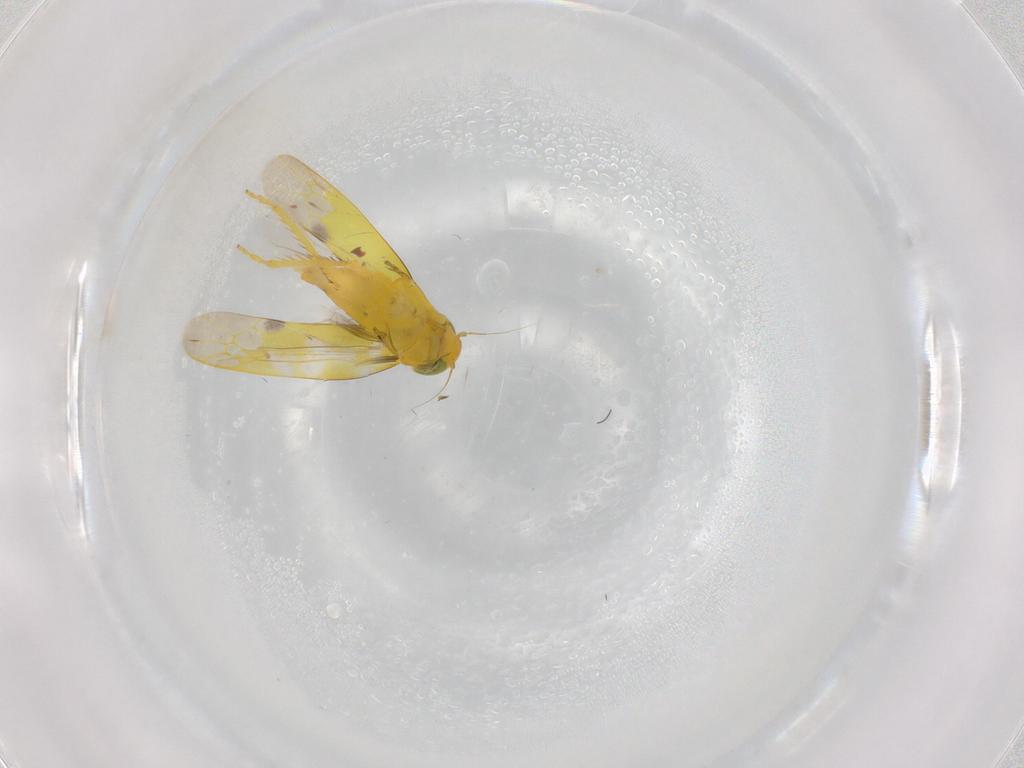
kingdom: Animalia
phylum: Arthropoda
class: Insecta
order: Hemiptera
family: Cicadellidae
